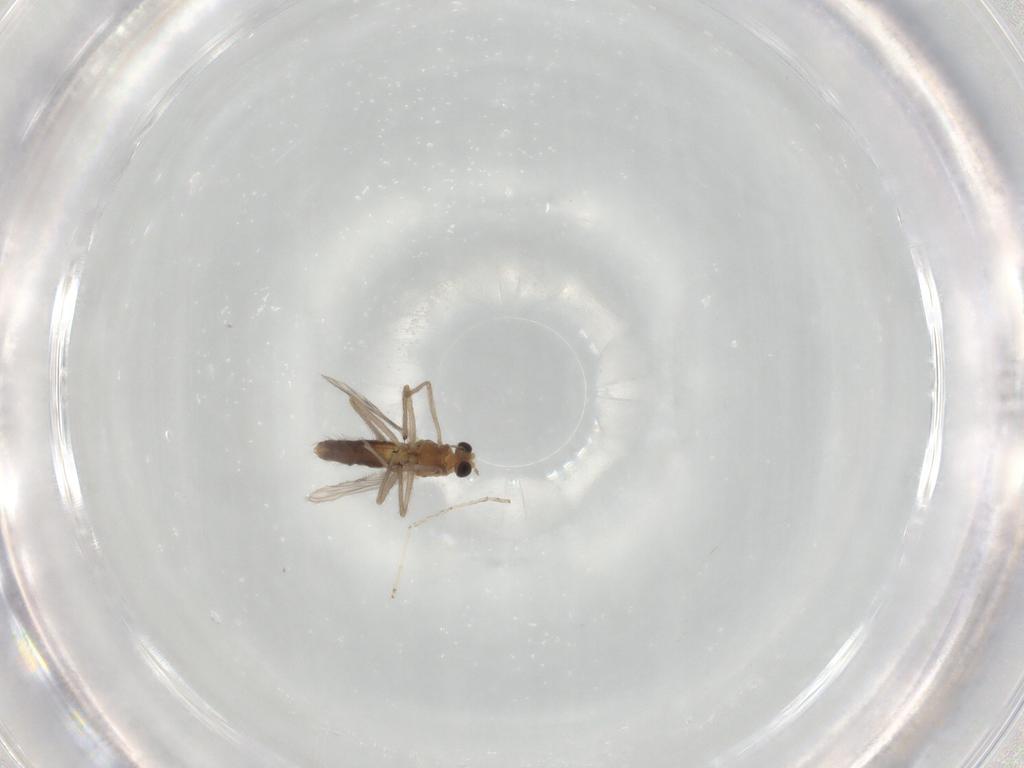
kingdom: Animalia
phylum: Arthropoda
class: Insecta
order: Diptera
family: Chironomidae
